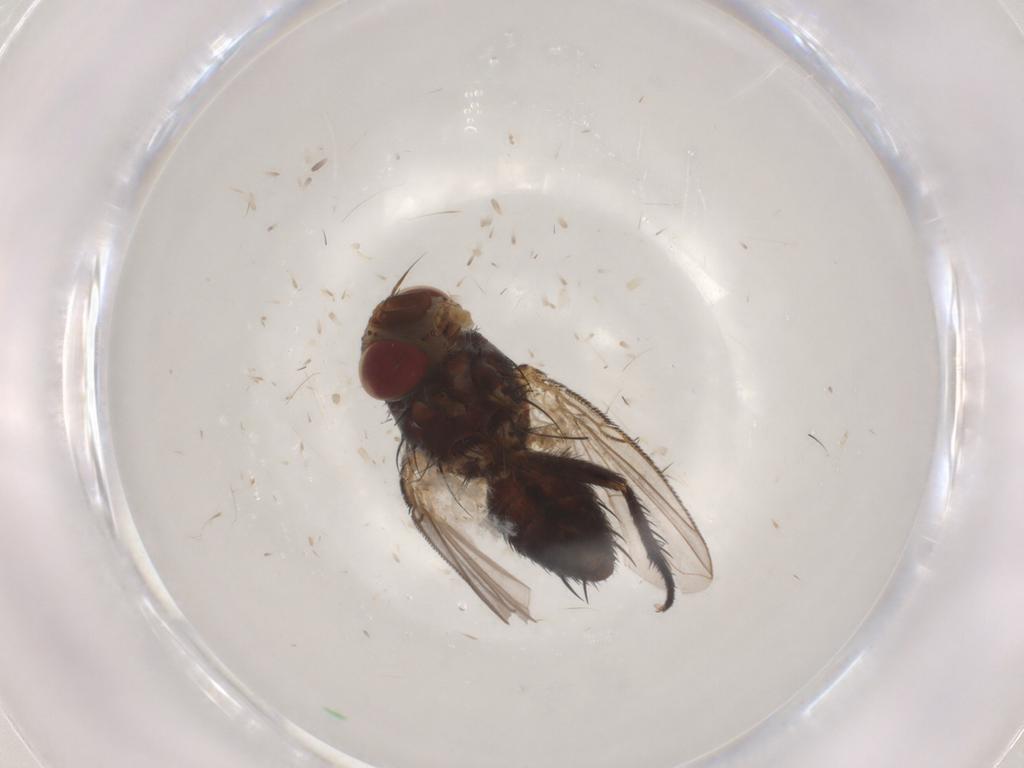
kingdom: Animalia
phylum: Arthropoda
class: Insecta
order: Diptera
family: Tachinidae
